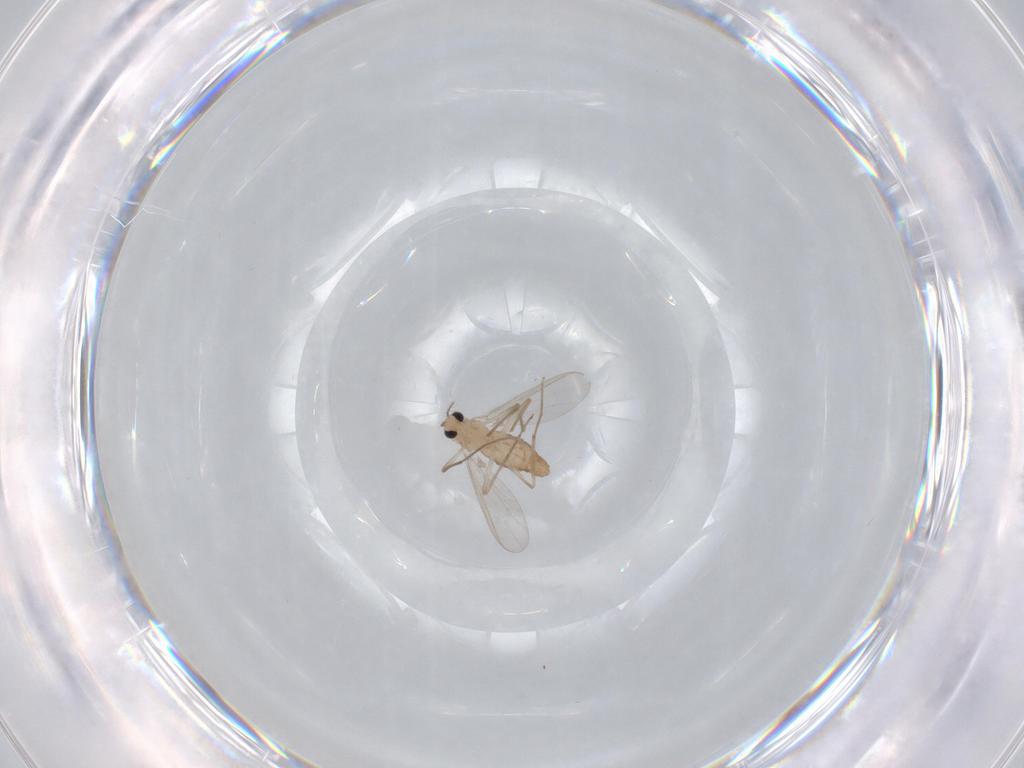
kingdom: Animalia
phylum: Arthropoda
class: Insecta
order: Diptera
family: Chironomidae
